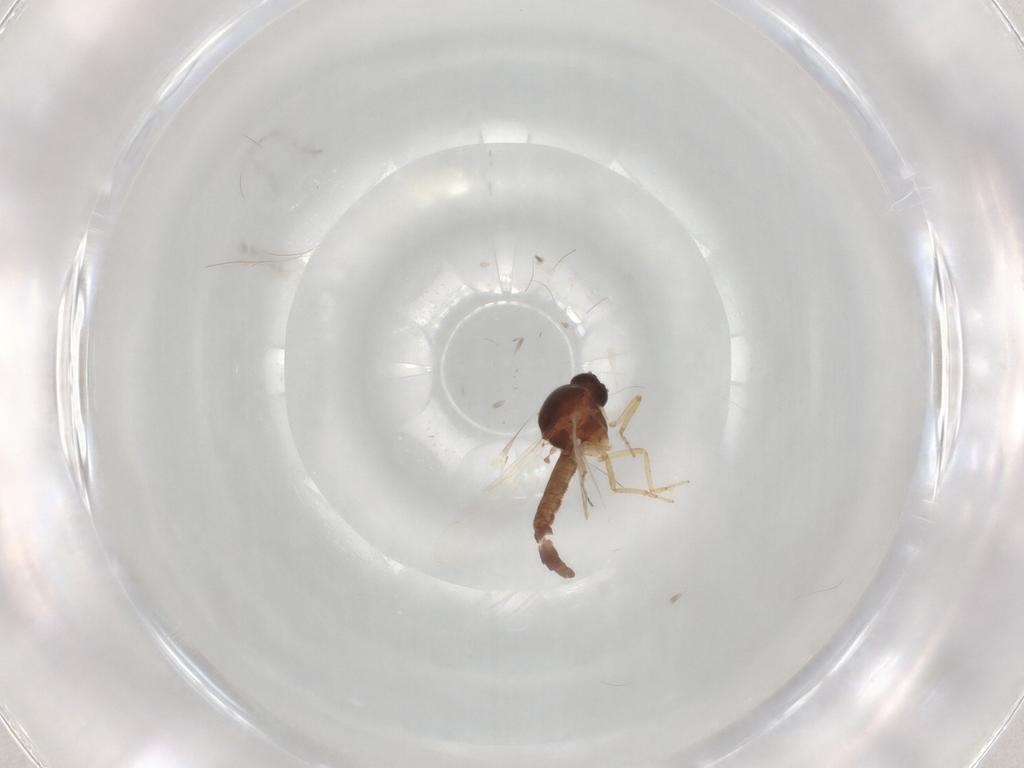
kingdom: Animalia
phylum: Arthropoda
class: Insecta
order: Diptera
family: Ceratopogonidae
